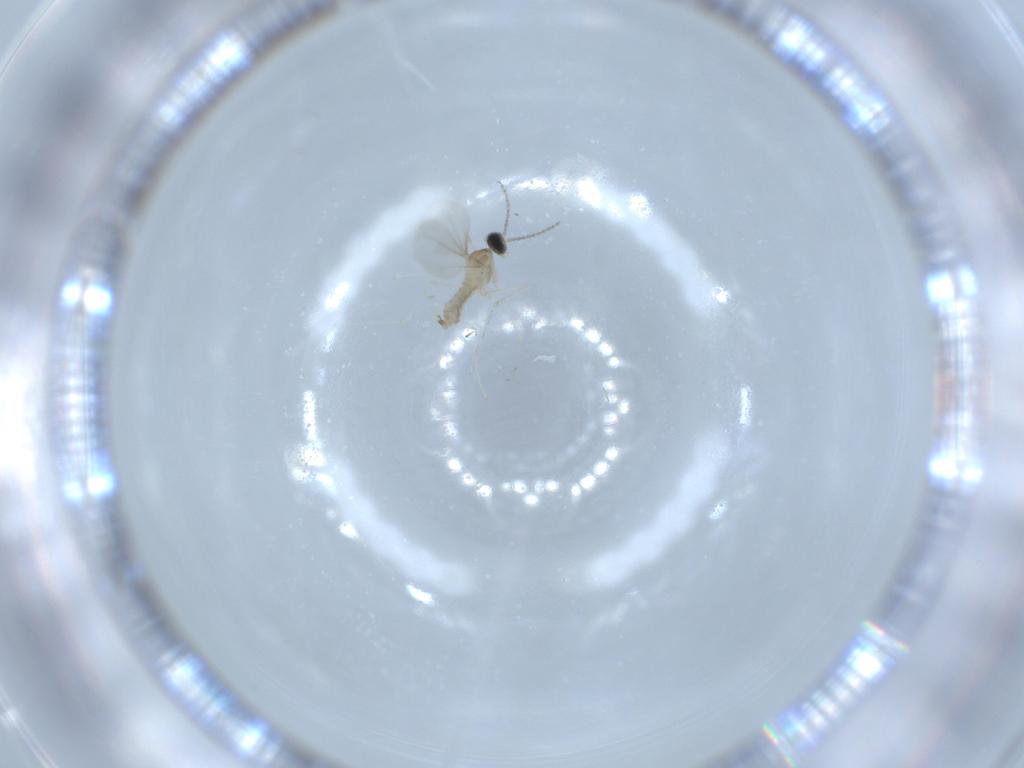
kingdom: Animalia
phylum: Arthropoda
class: Insecta
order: Diptera
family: Cecidomyiidae
